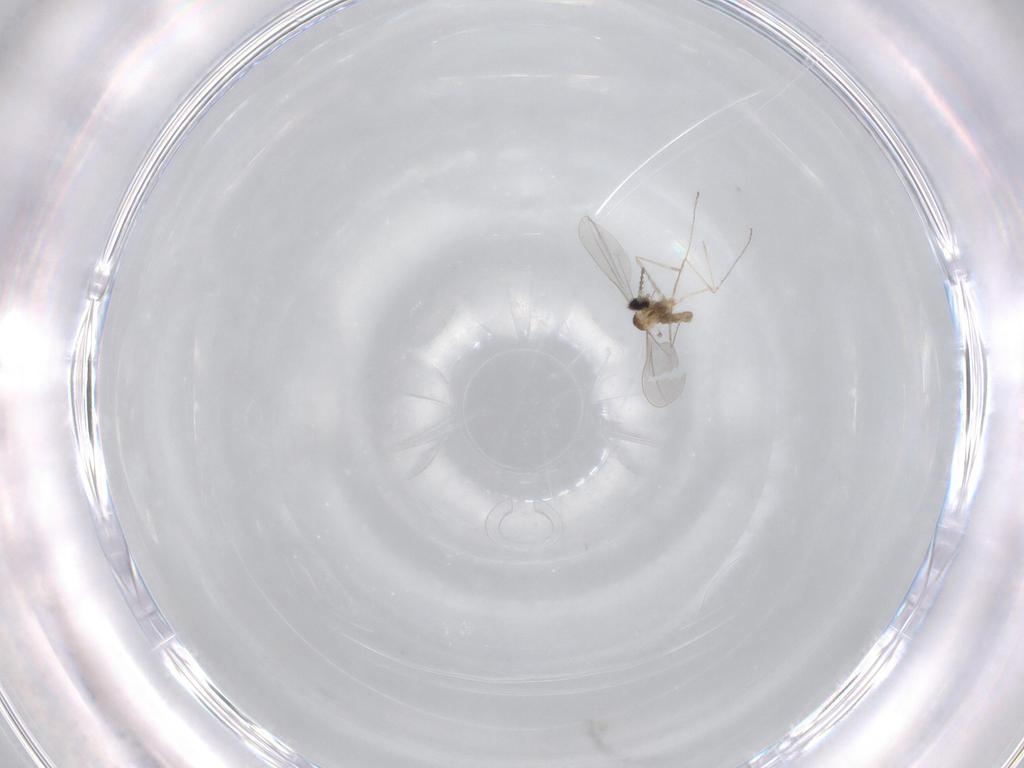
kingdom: Animalia
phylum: Arthropoda
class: Insecta
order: Diptera
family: Cecidomyiidae
